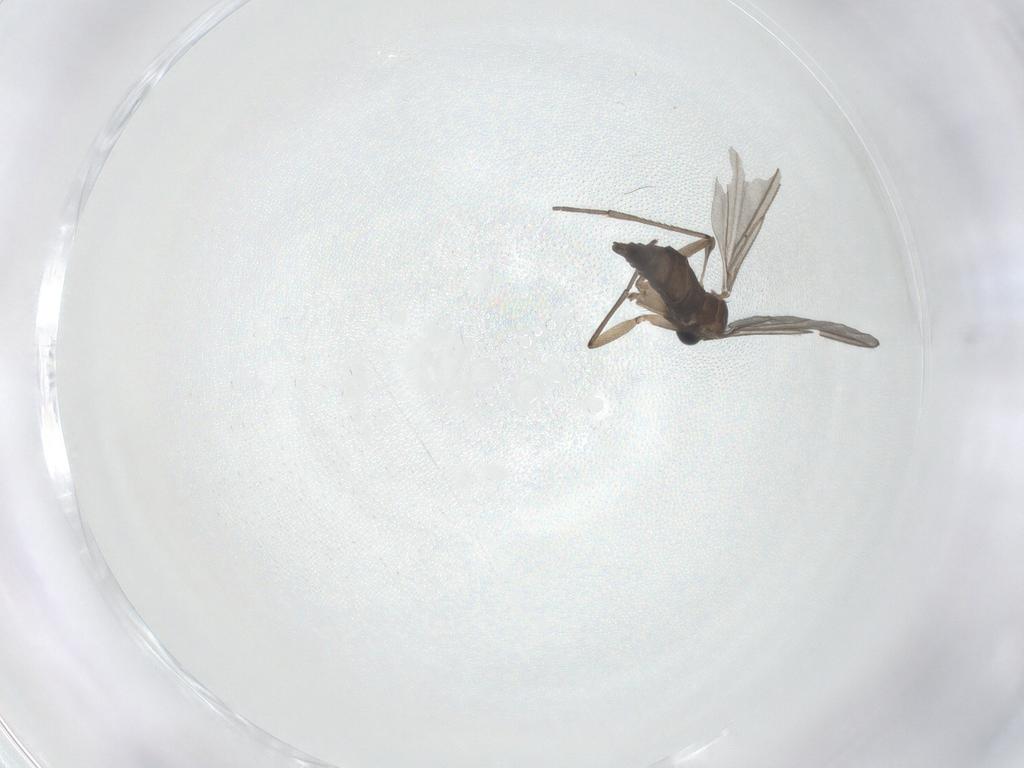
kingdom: Animalia
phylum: Arthropoda
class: Insecta
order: Diptera
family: Sciaridae
